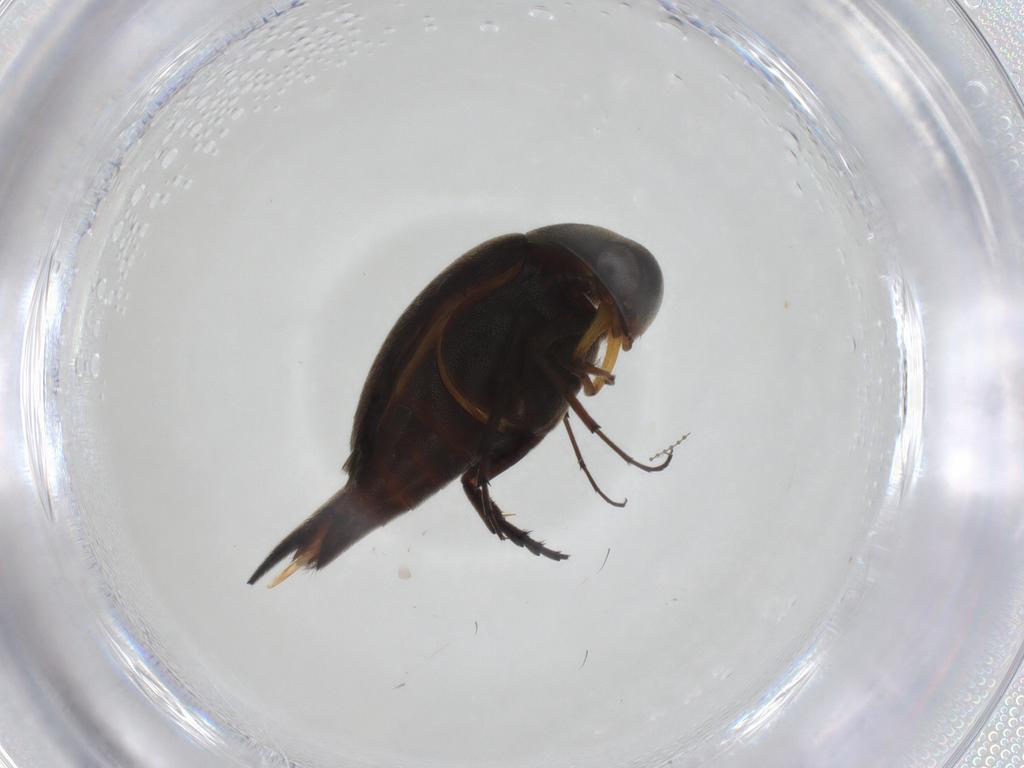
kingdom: Animalia
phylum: Arthropoda
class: Insecta
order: Coleoptera
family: Mordellidae
